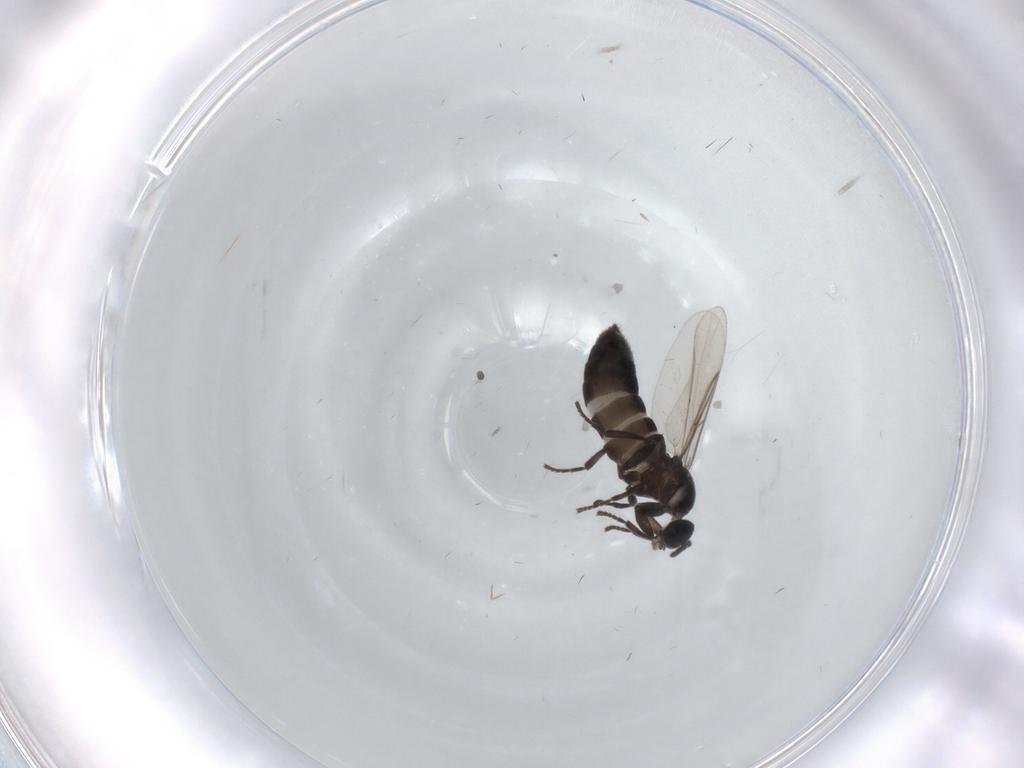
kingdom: Animalia
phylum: Arthropoda
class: Insecta
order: Diptera
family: Scatopsidae
